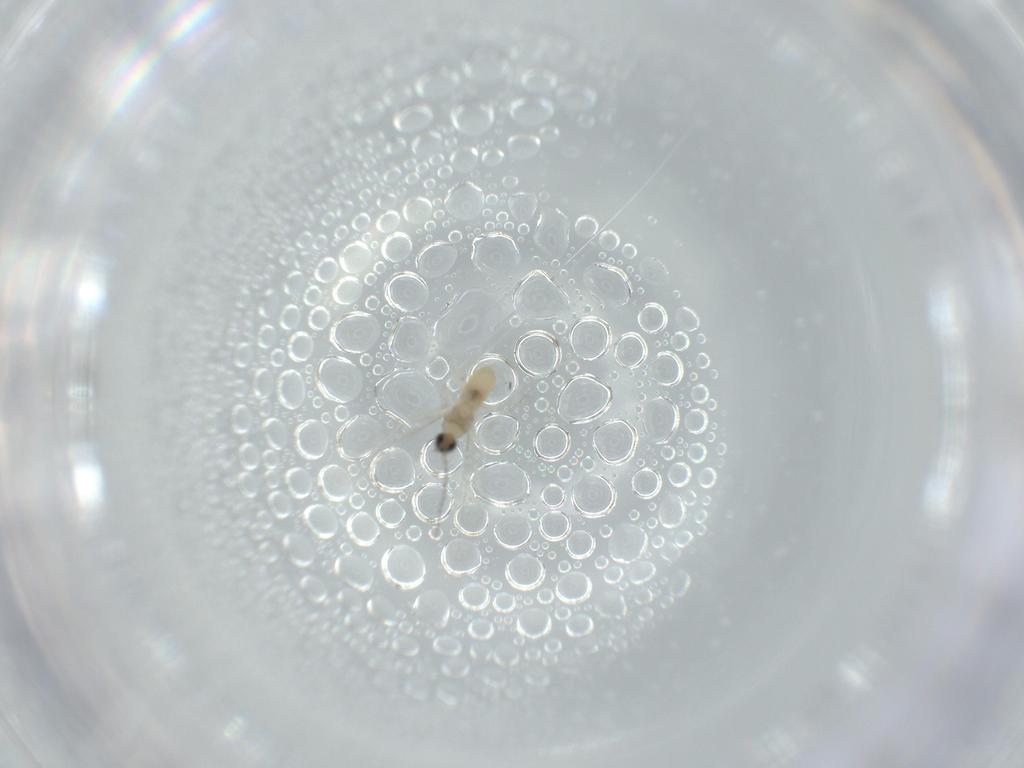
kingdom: Animalia
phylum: Arthropoda
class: Insecta
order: Diptera
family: Cecidomyiidae
